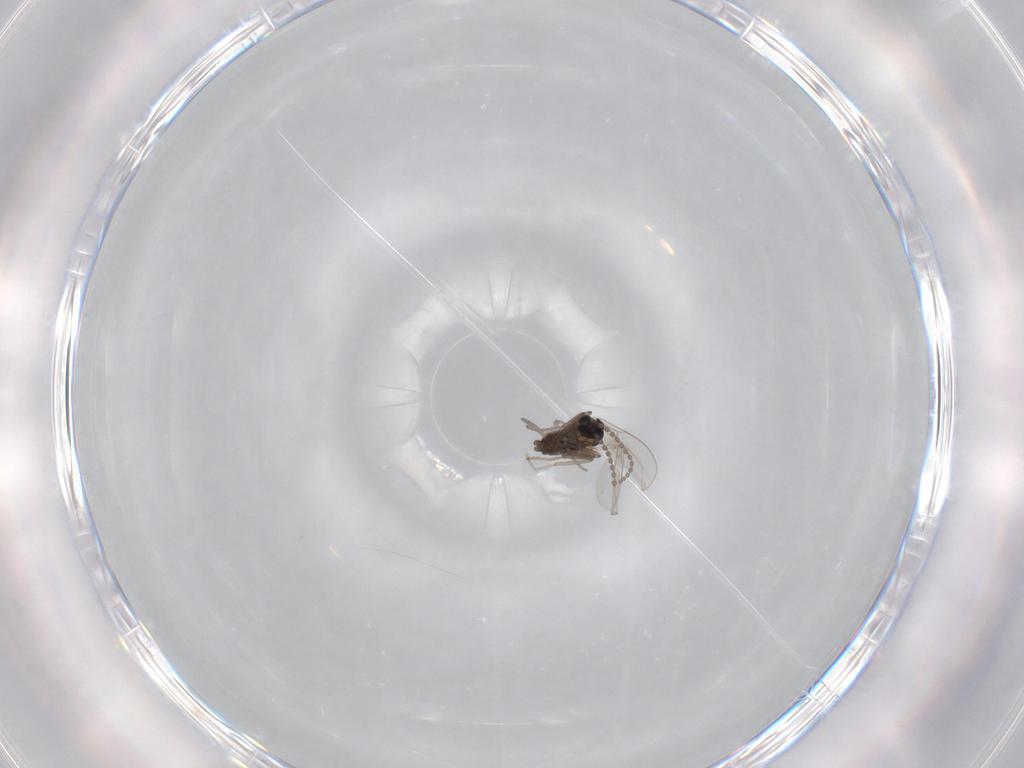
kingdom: Animalia
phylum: Arthropoda
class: Insecta
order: Diptera
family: Cecidomyiidae
